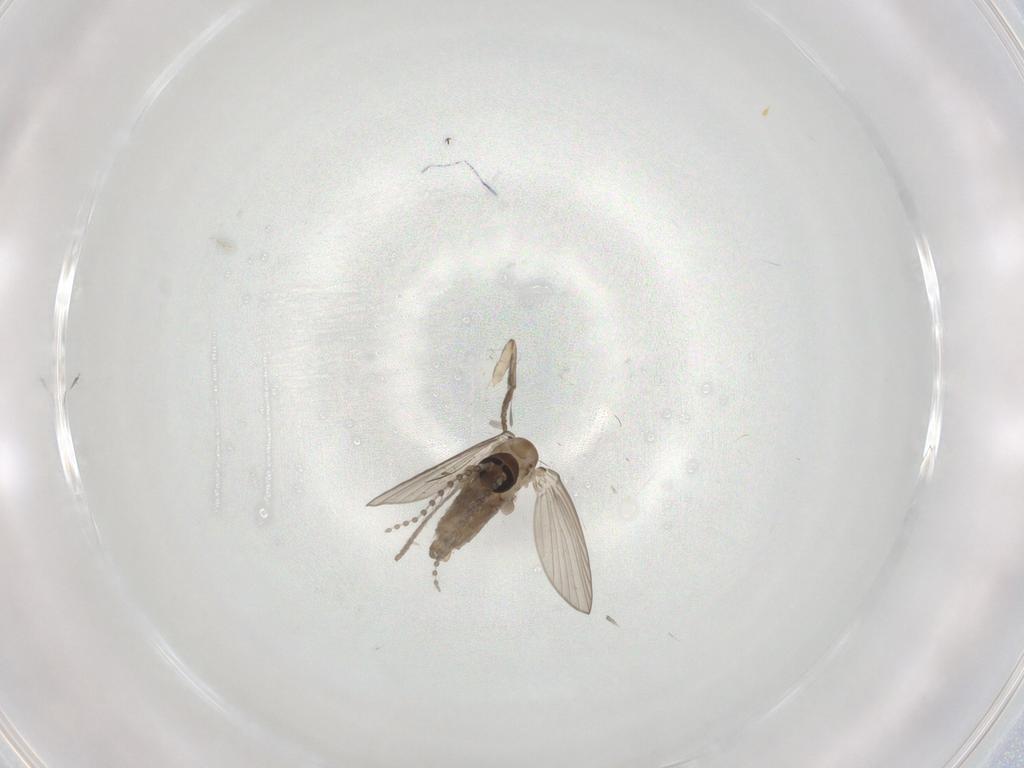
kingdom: Animalia
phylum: Arthropoda
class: Insecta
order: Diptera
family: Psychodidae
